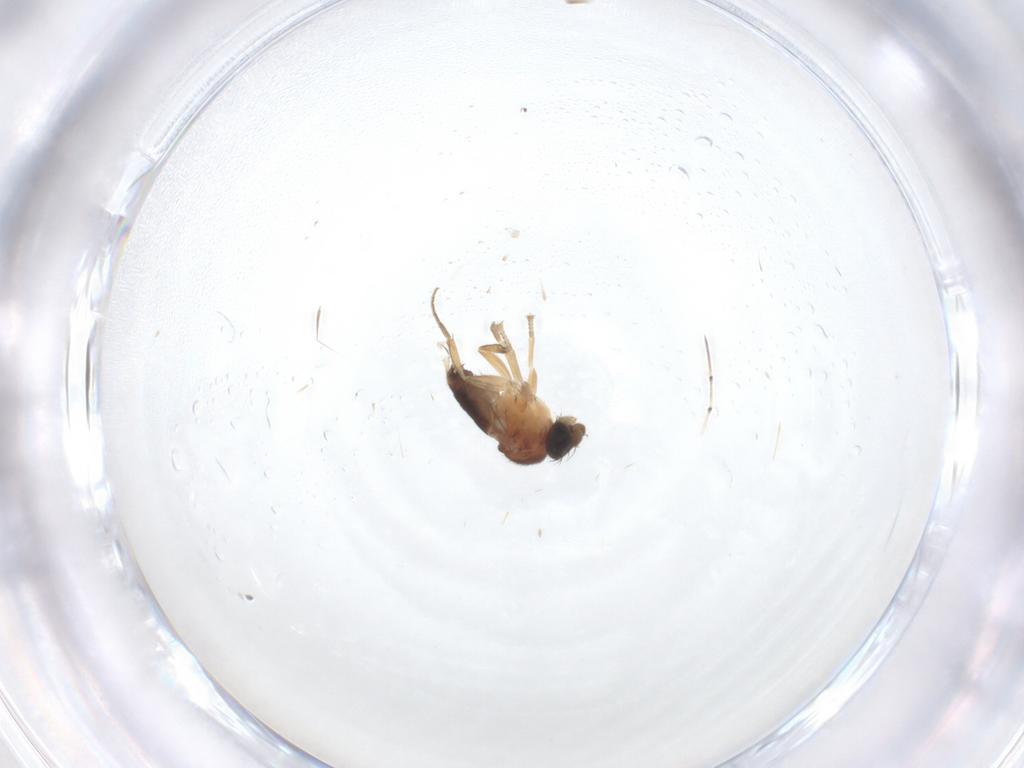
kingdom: Animalia
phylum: Arthropoda
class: Insecta
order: Diptera
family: Chironomidae
